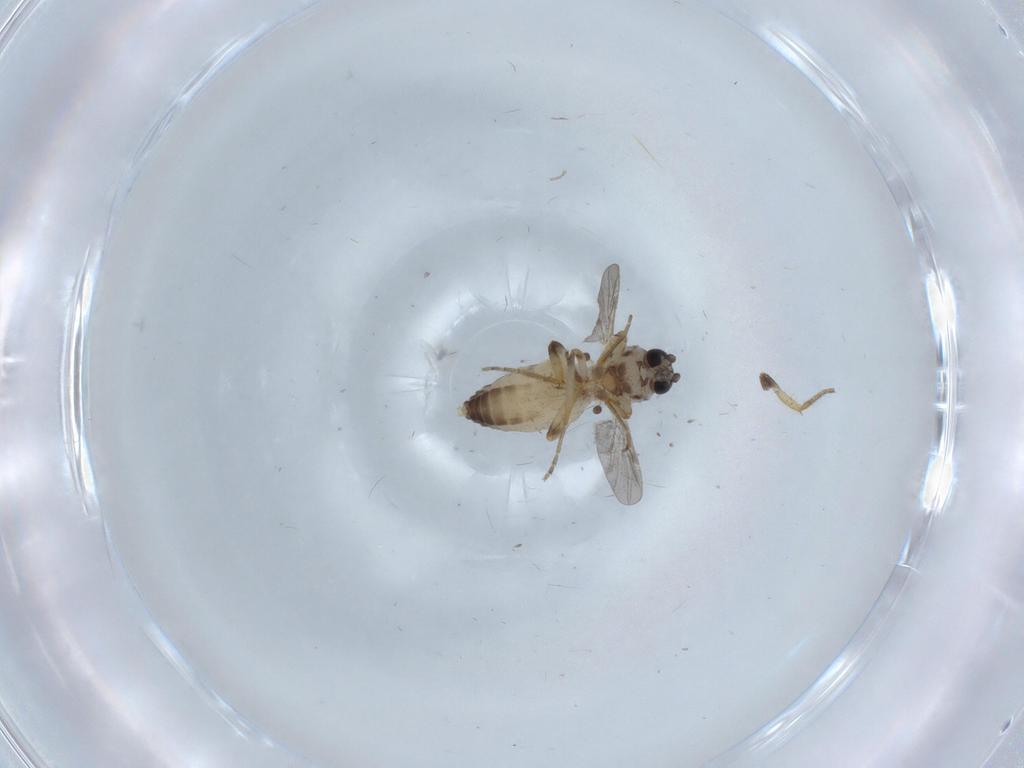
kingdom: Animalia
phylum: Arthropoda
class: Insecta
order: Diptera
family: Ceratopogonidae
